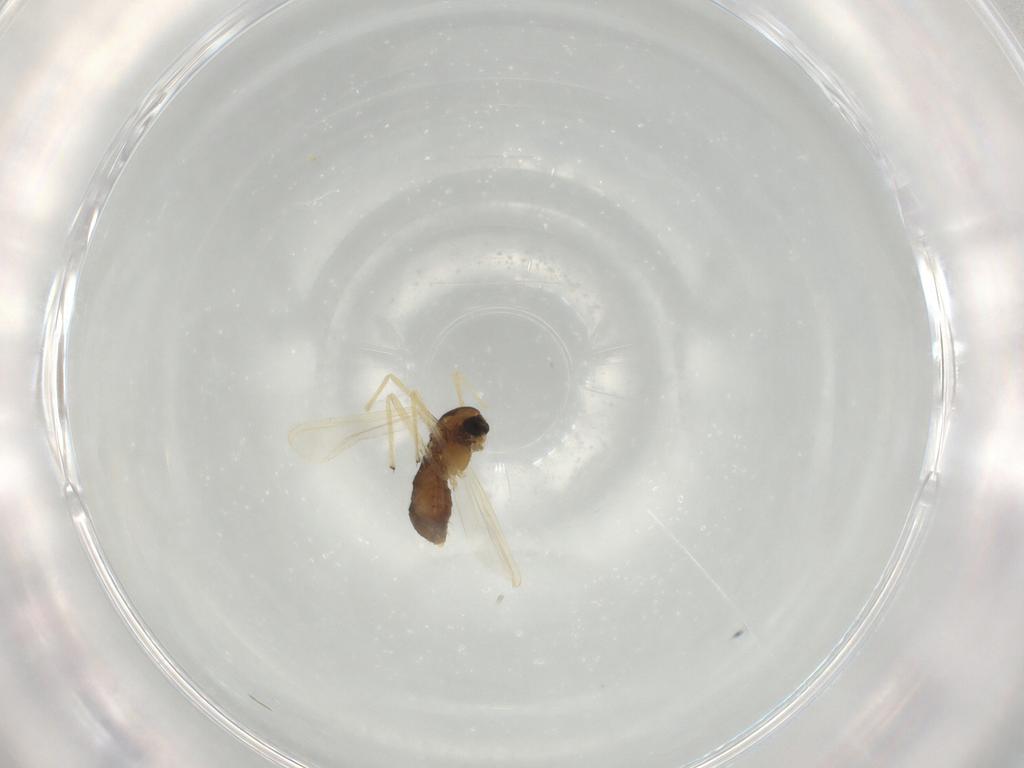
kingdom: Animalia
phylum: Arthropoda
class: Insecta
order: Diptera
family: Chironomidae
